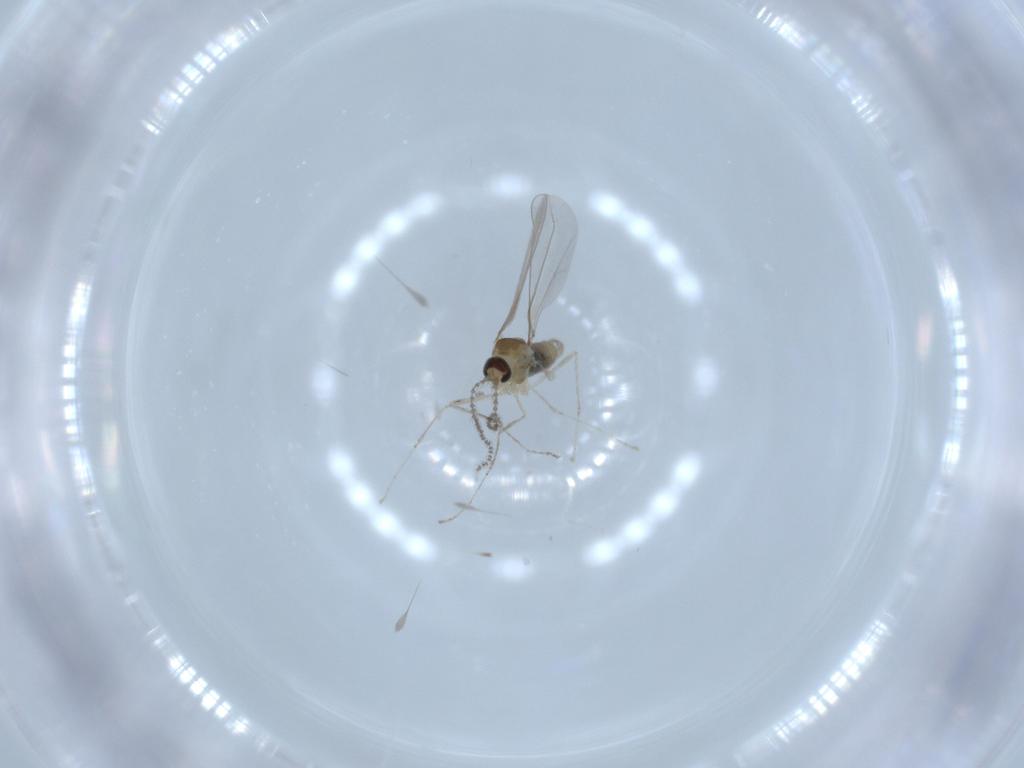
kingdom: Animalia
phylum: Arthropoda
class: Insecta
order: Diptera
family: Cecidomyiidae
